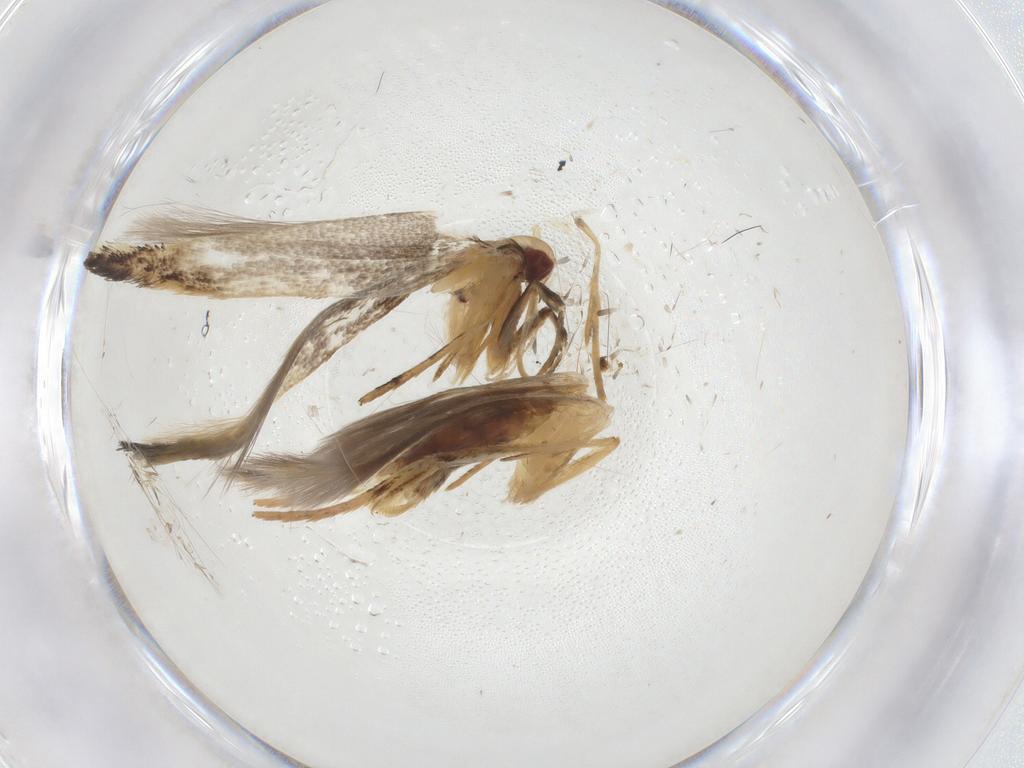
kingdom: Animalia
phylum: Arthropoda
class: Insecta
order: Lepidoptera
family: Cosmopterigidae
